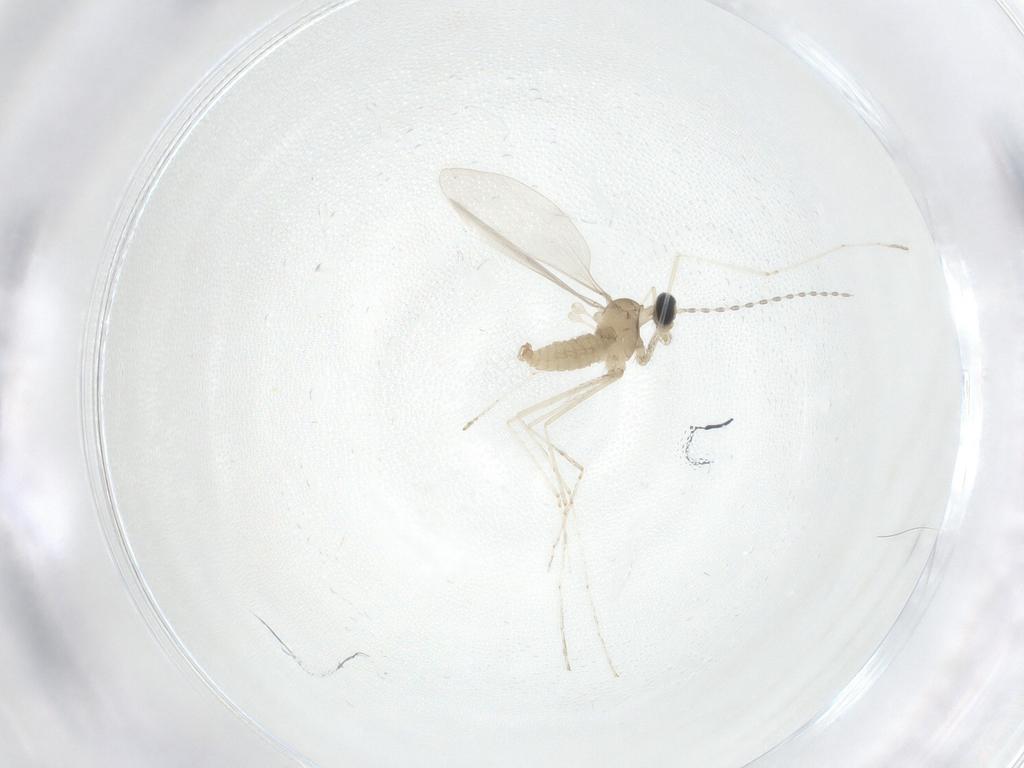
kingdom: Animalia
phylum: Arthropoda
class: Insecta
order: Diptera
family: Cecidomyiidae
